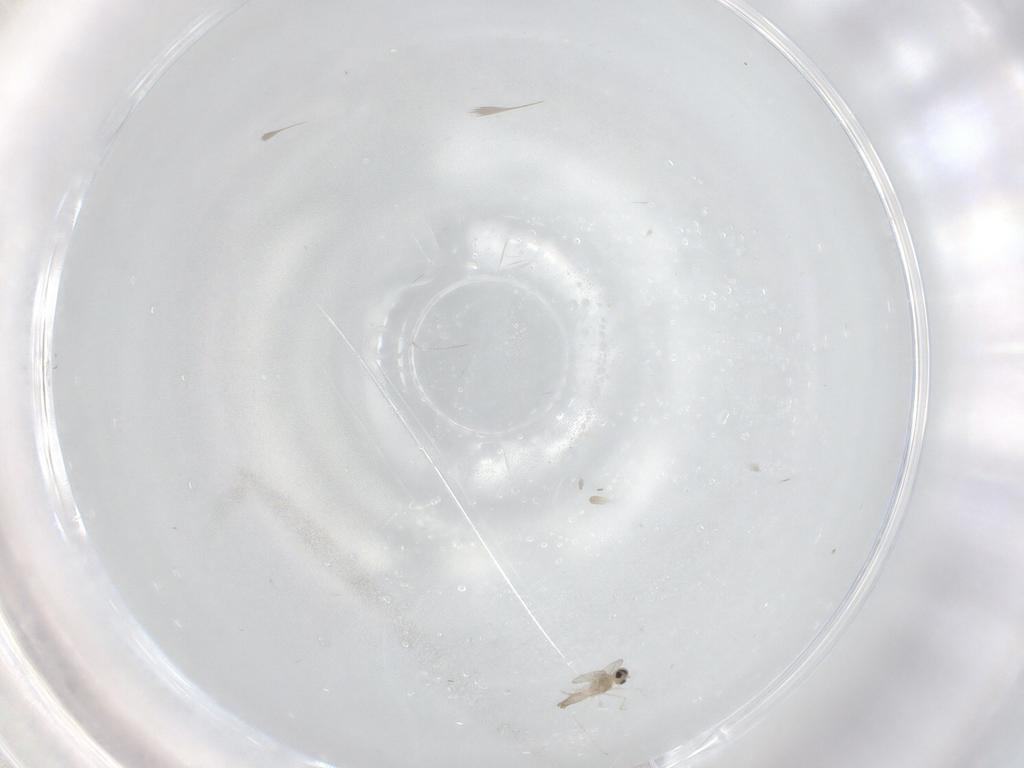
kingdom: Animalia
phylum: Arthropoda
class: Insecta
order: Diptera
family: Cecidomyiidae
